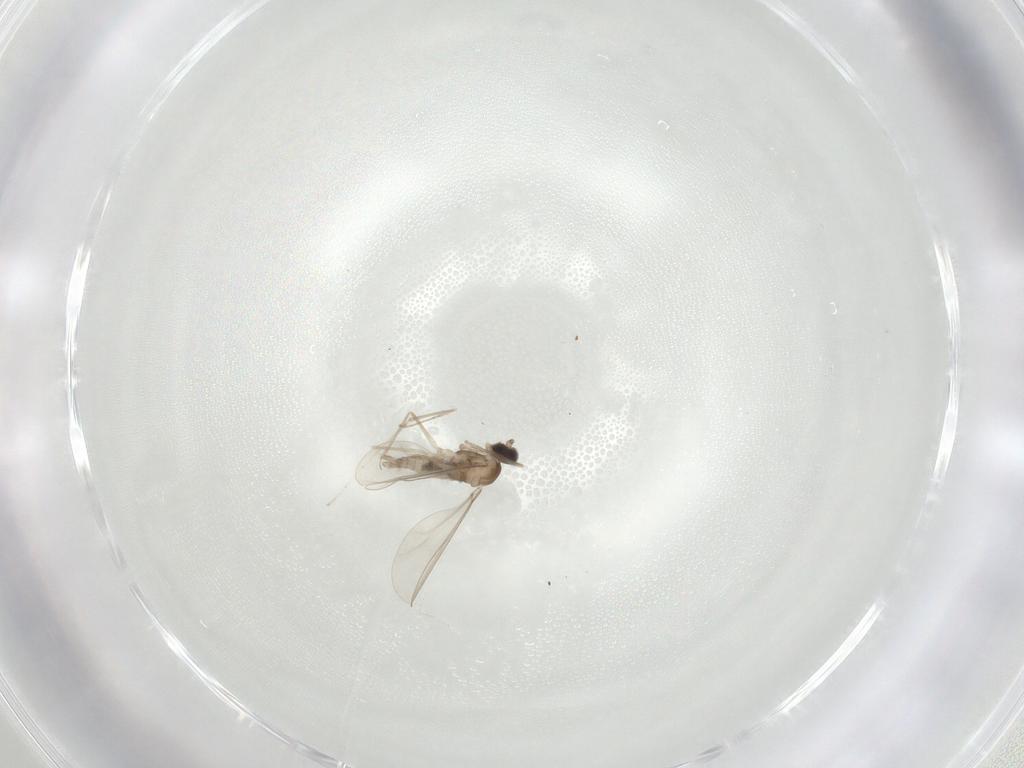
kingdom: Animalia
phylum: Arthropoda
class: Insecta
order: Diptera
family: Cecidomyiidae
